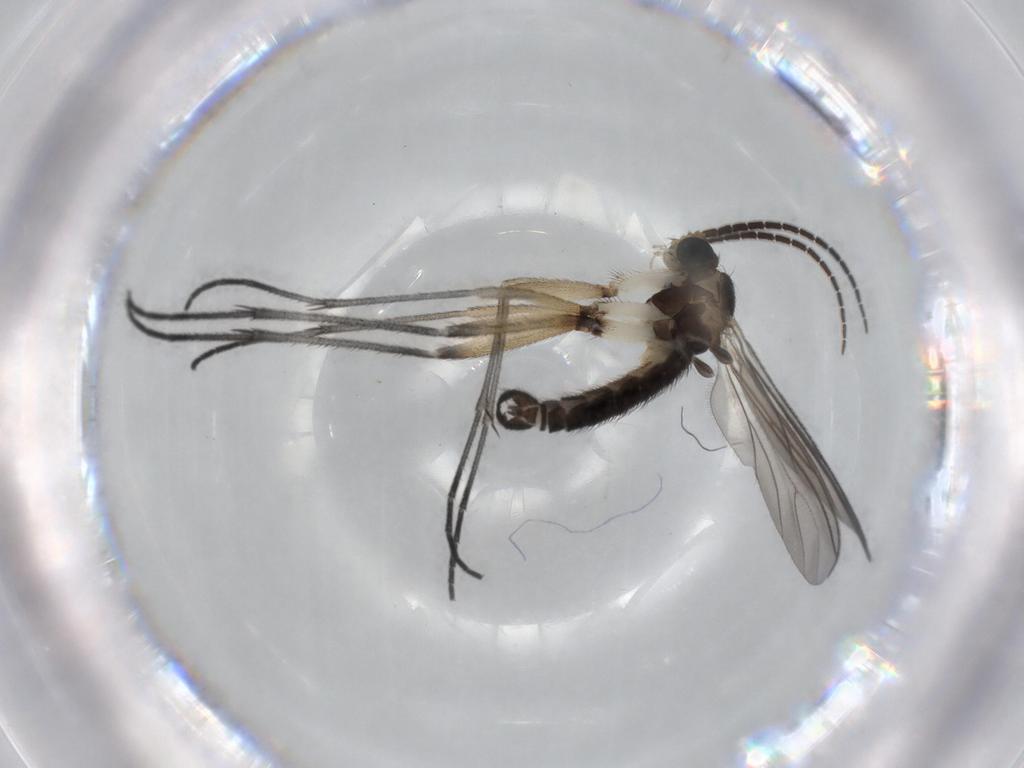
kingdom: Animalia
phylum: Arthropoda
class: Insecta
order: Diptera
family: Sciaridae
